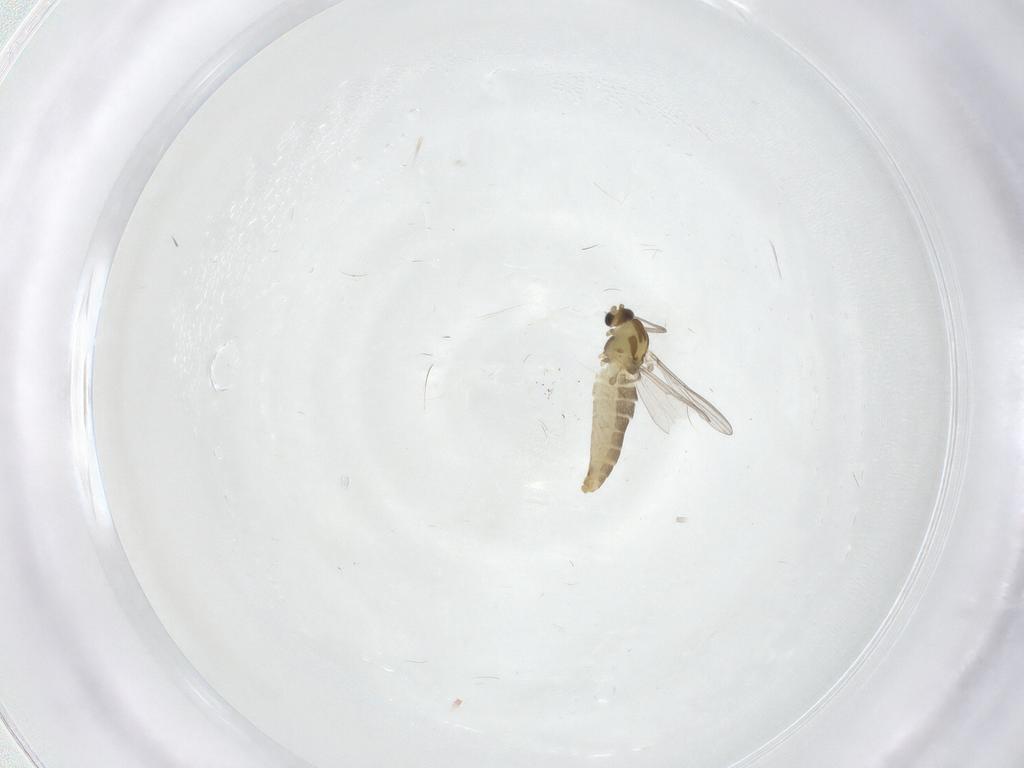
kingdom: Animalia
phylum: Arthropoda
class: Insecta
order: Diptera
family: Chironomidae
